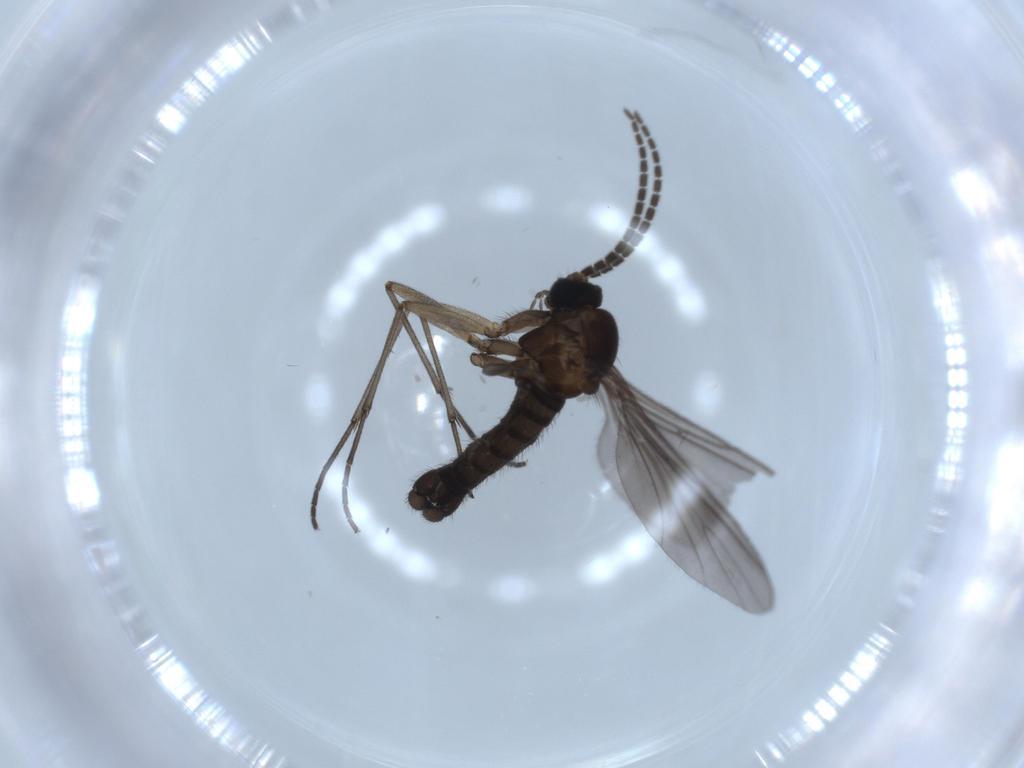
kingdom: Animalia
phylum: Arthropoda
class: Insecta
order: Diptera
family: Sciaridae
